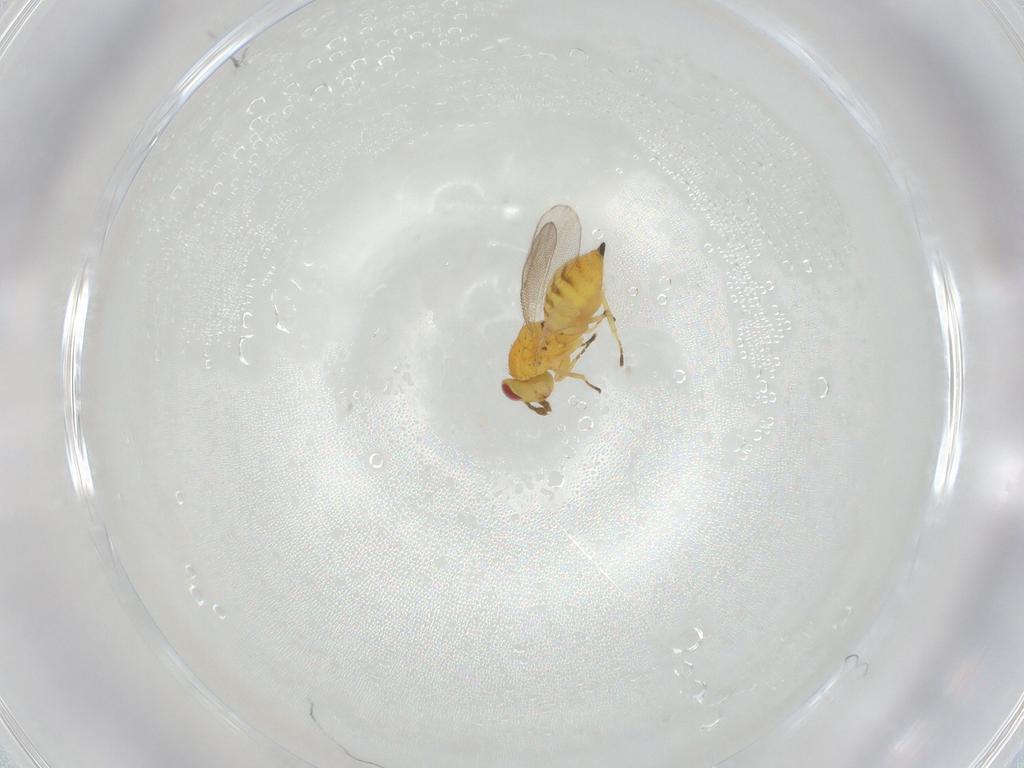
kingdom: Animalia
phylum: Arthropoda
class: Insecta
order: Hymenoptera
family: Eulophidae
